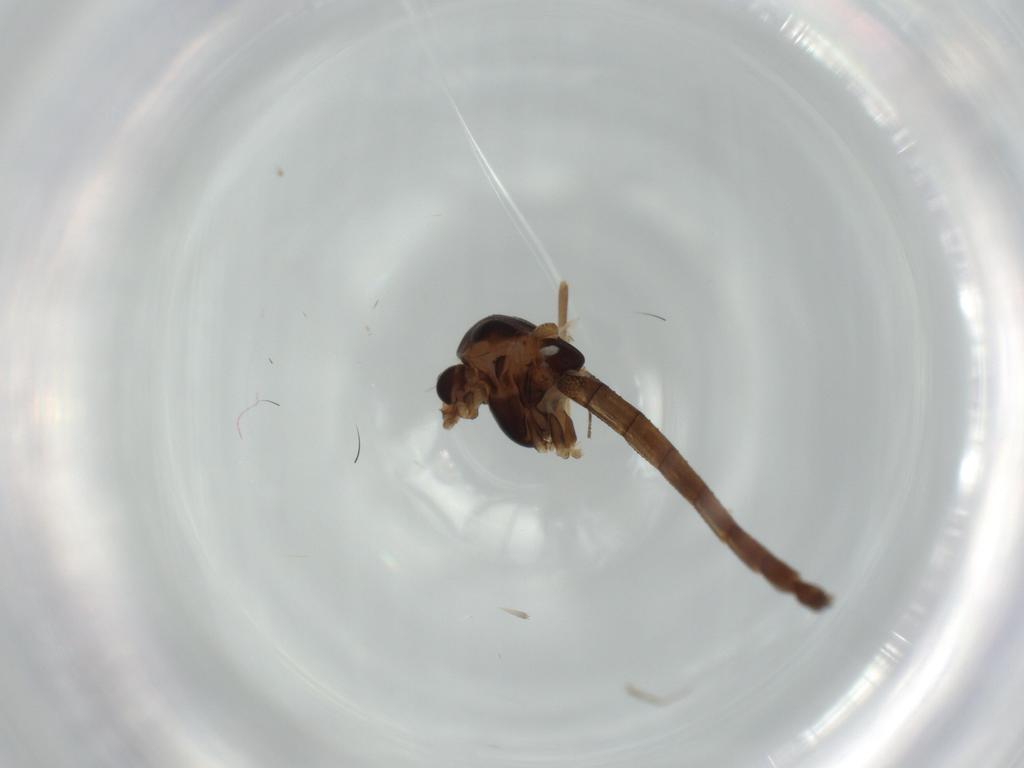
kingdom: Animalia
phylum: Arthropoda
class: Insecta
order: Diptera
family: Chironomidae
